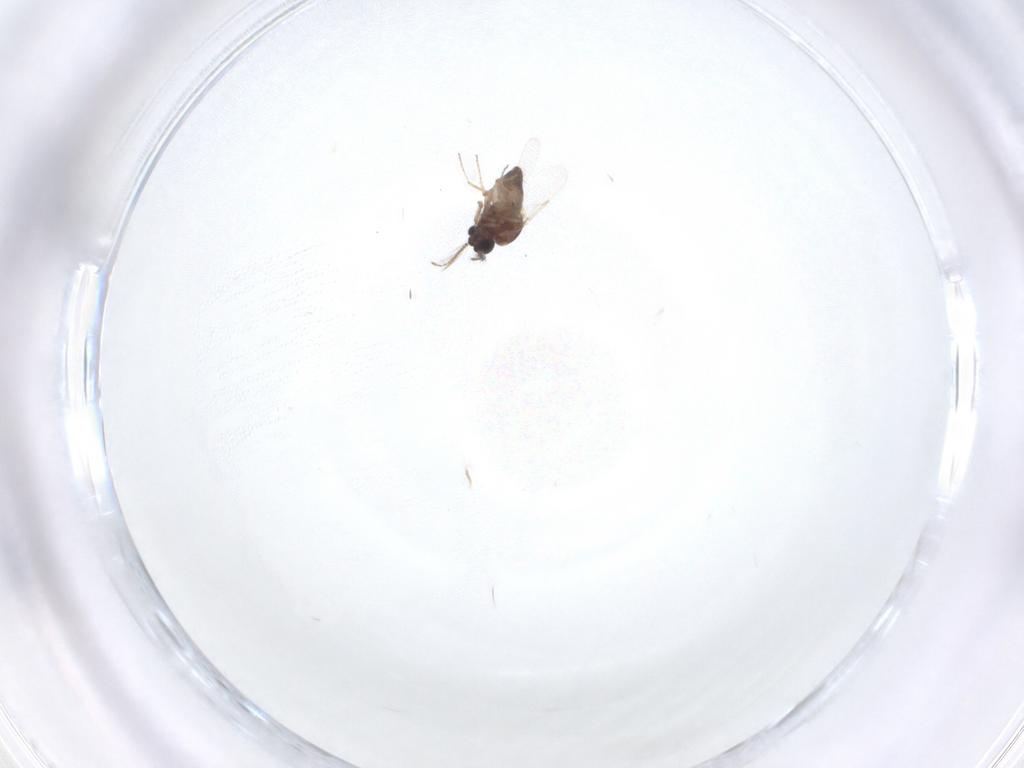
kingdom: Animalia
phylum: Arthropoda
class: Insecta
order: Diptera
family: Ceratopogonidae
